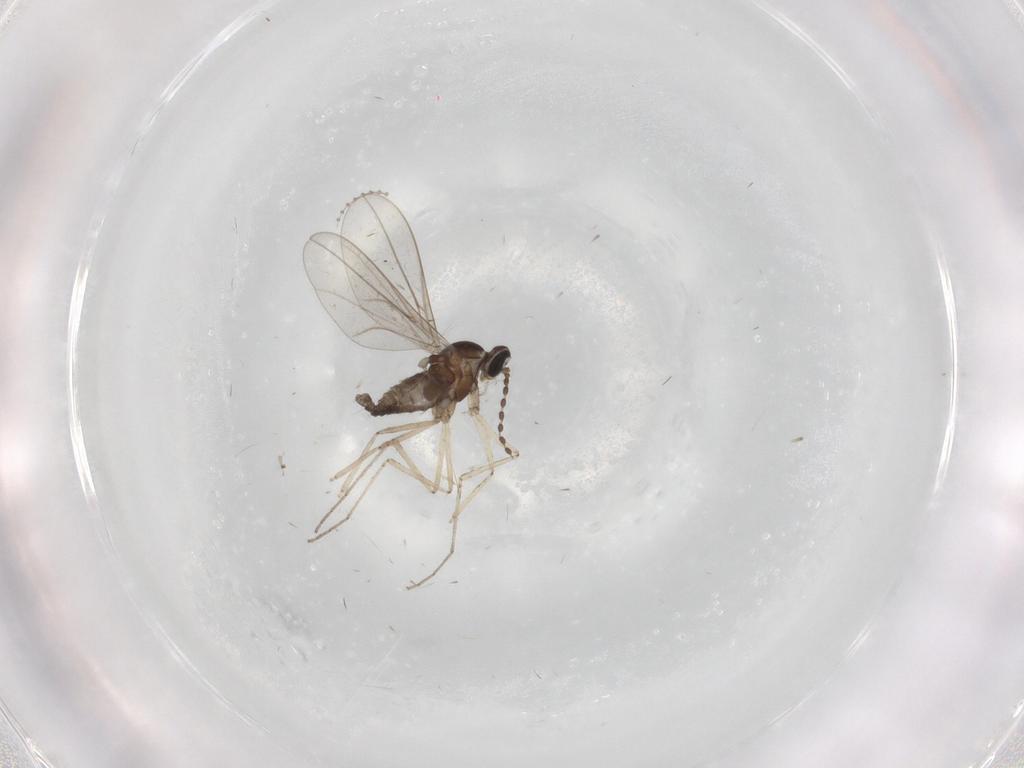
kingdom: Animalia
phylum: Arthropoda
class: Insecta
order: Diptera
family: Cecidomyiidae
